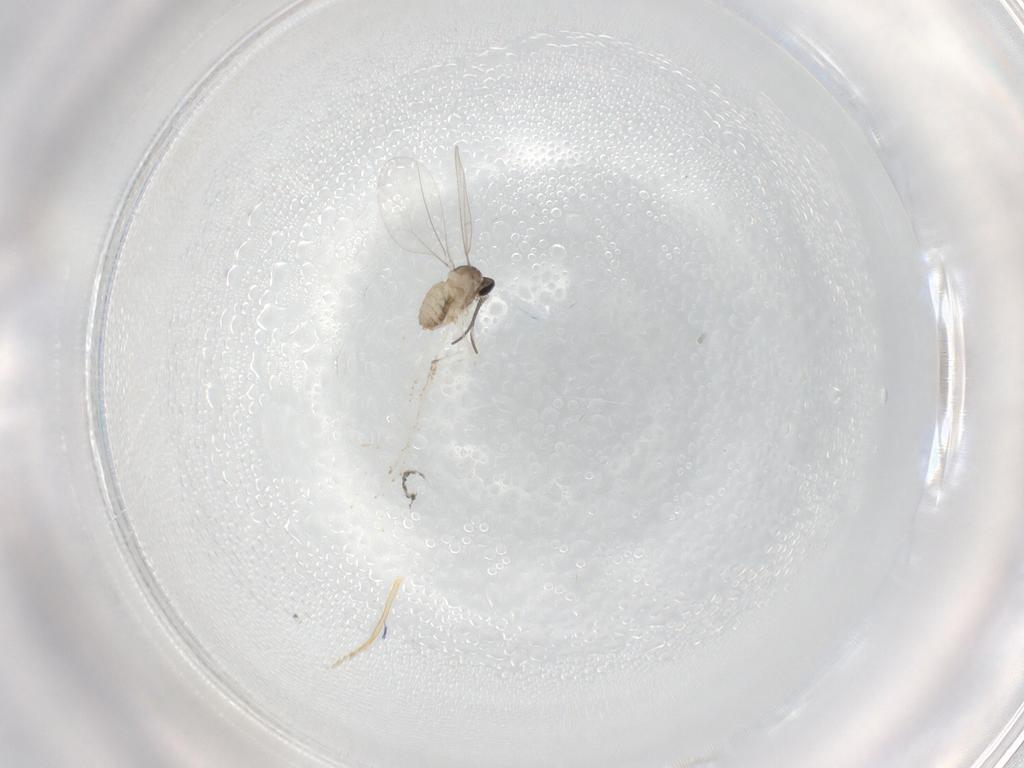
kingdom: Animalia
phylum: Arthropoda
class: Insecta
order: Diptera
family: Cecidomyiidae
